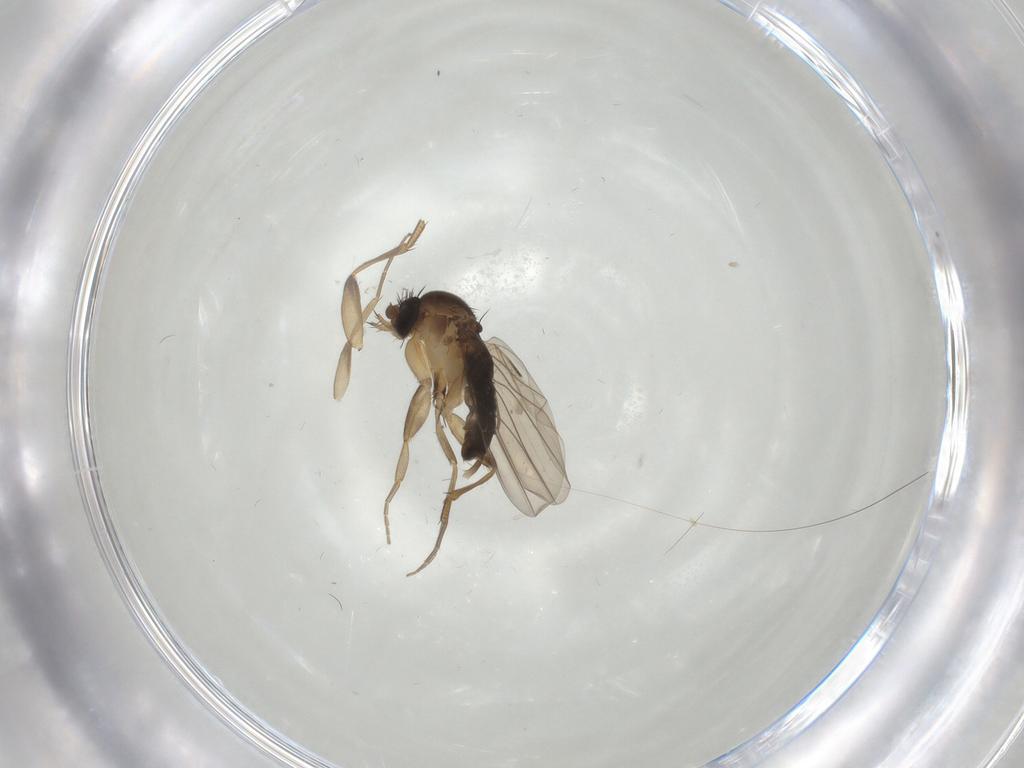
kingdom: Animalia
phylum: Arthropoda
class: Insecta
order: Diptera
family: Phoridae
